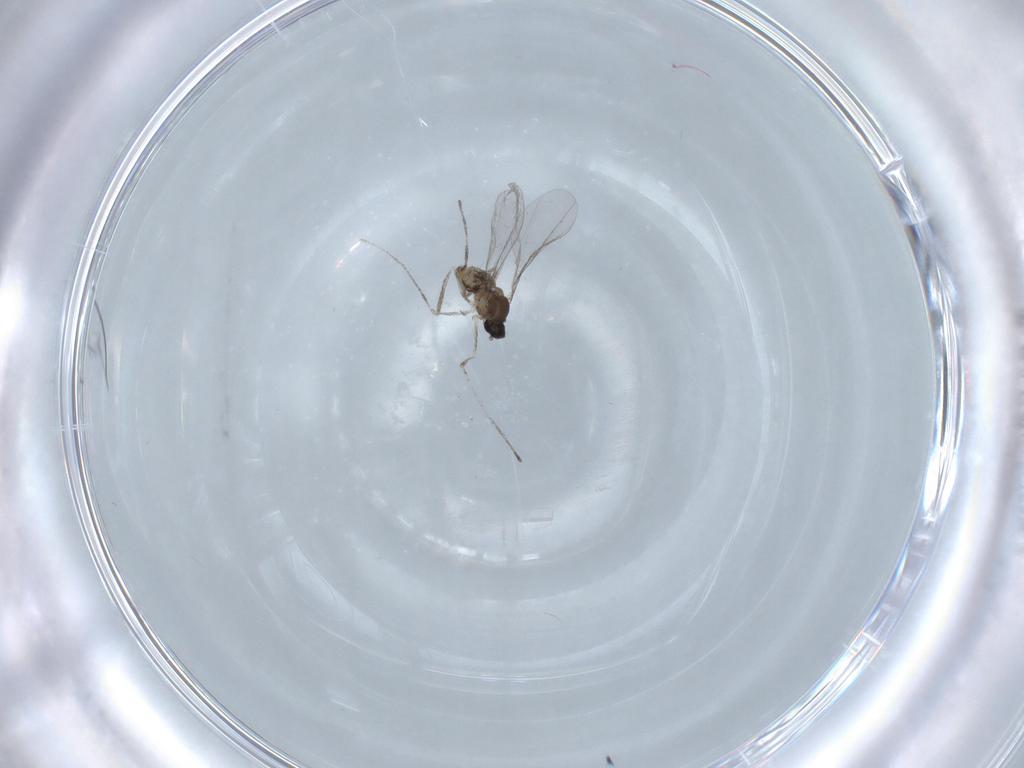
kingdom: Animalia
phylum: Arthropoda
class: Insecta
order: Diptera
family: Cecidomyiidae
